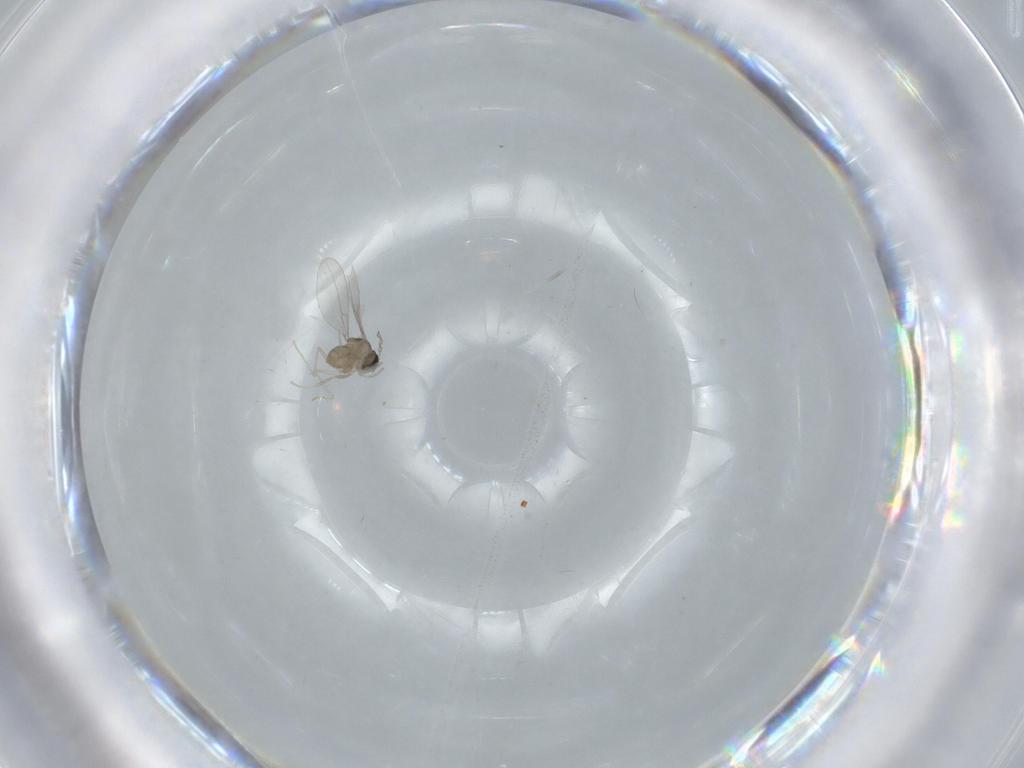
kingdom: Animalia
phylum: Arthropoda
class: Insecta
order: Diptera
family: Cecidomyiidae
